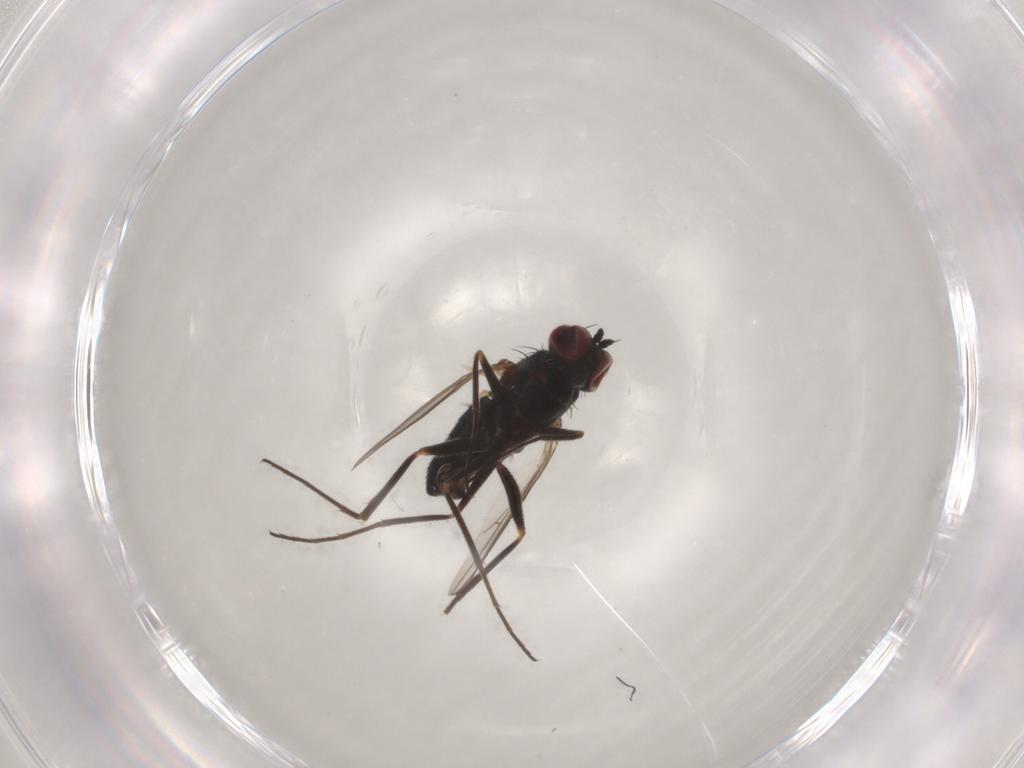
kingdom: Animalia
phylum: Arthropoda
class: Insecta
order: Diptera
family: Dolichopodidae
